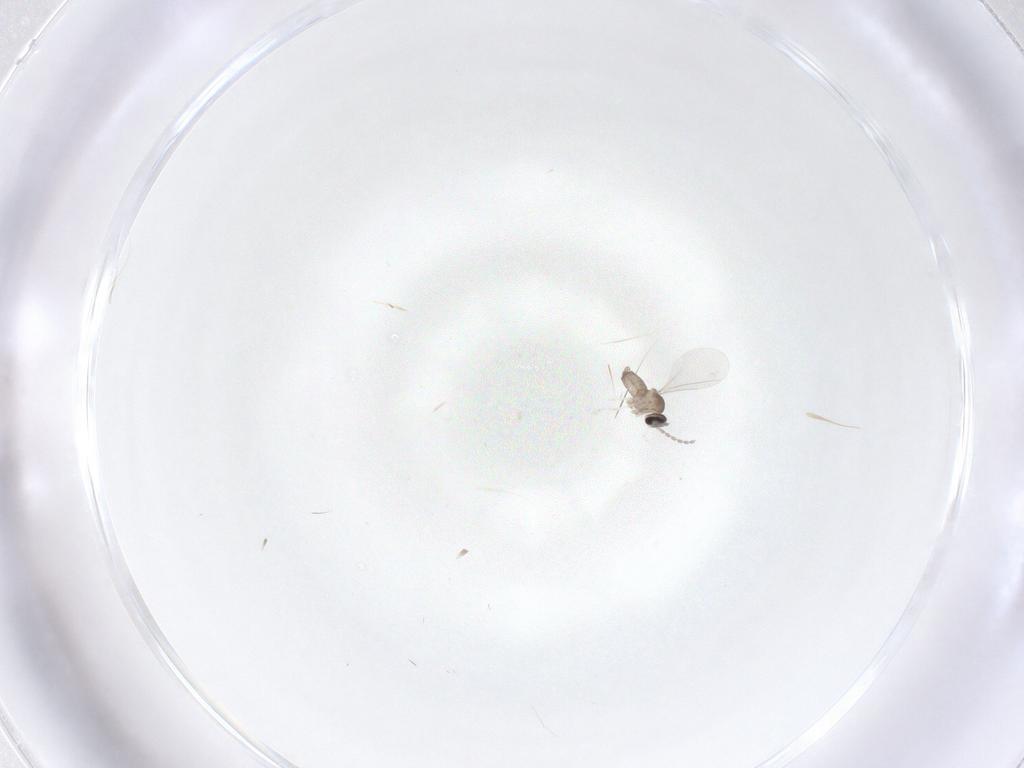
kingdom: Animalia
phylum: Arthropoda
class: Insecta
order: Diptera
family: Cecidomyiidae
